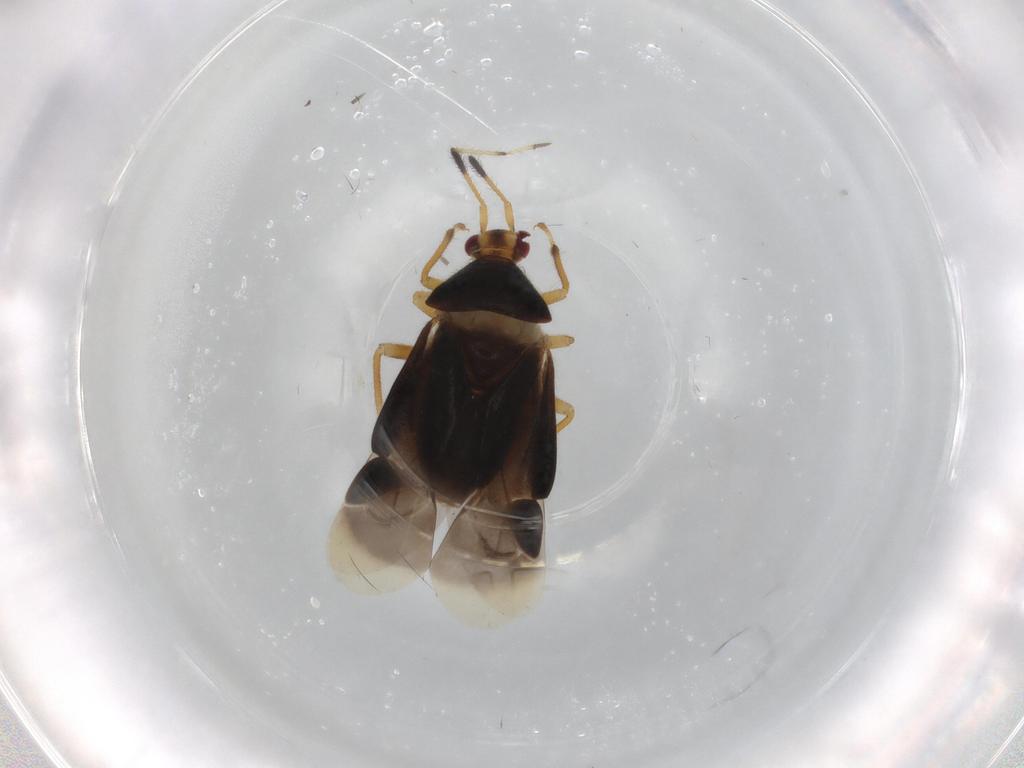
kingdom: Animalia
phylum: Arthropoda
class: Insecta
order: Hemiptera
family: Miridae
